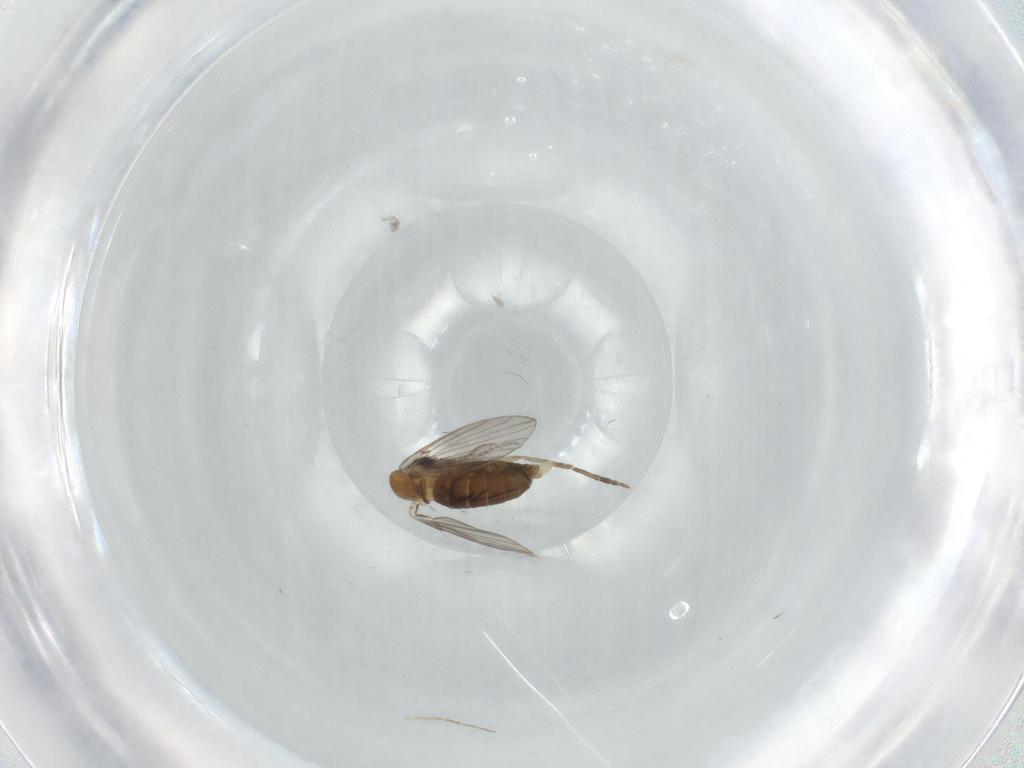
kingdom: Animalia
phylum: Arthropoda
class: Insecta
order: Diptera
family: Psychodidae
